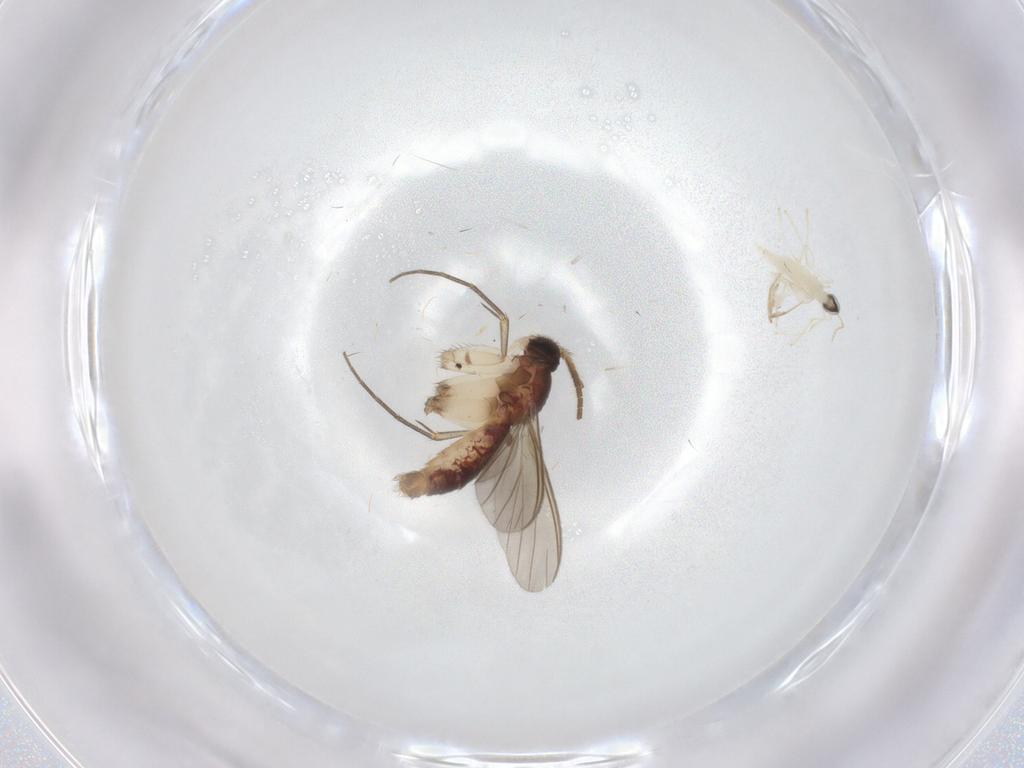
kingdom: Animalia
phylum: Arthropoda
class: Insecta
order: Diptera
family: Mycetophilidae
